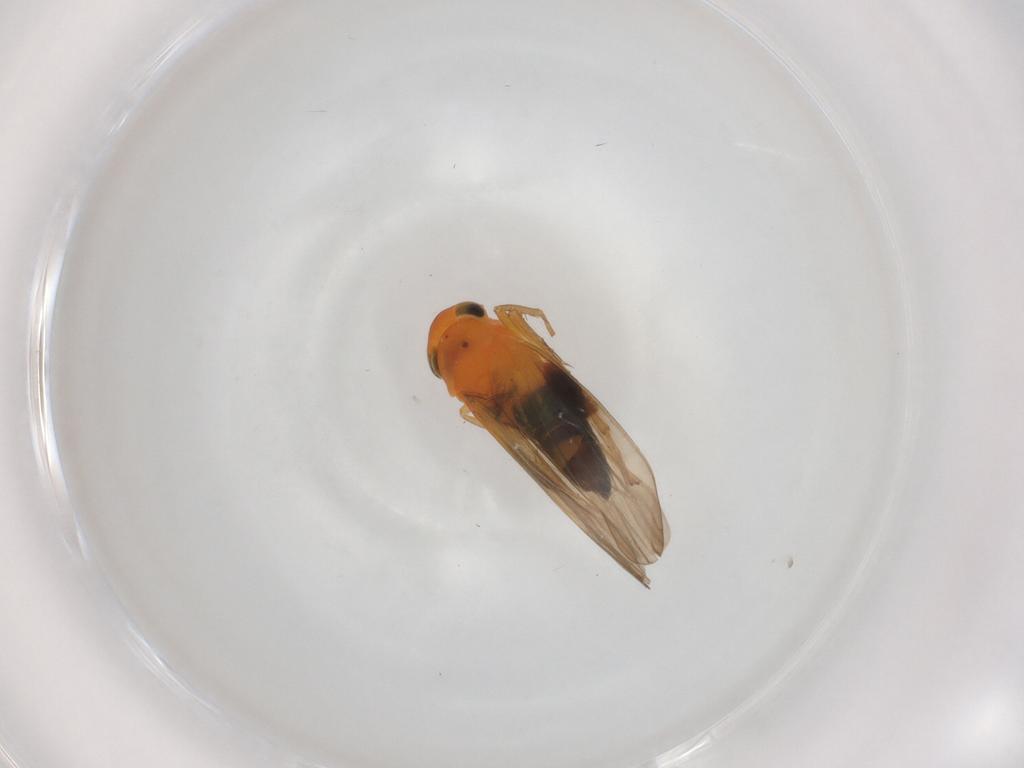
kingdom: Animalia
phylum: Arthropoda
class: Insecta
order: Hemiptera
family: Cicadellidae
